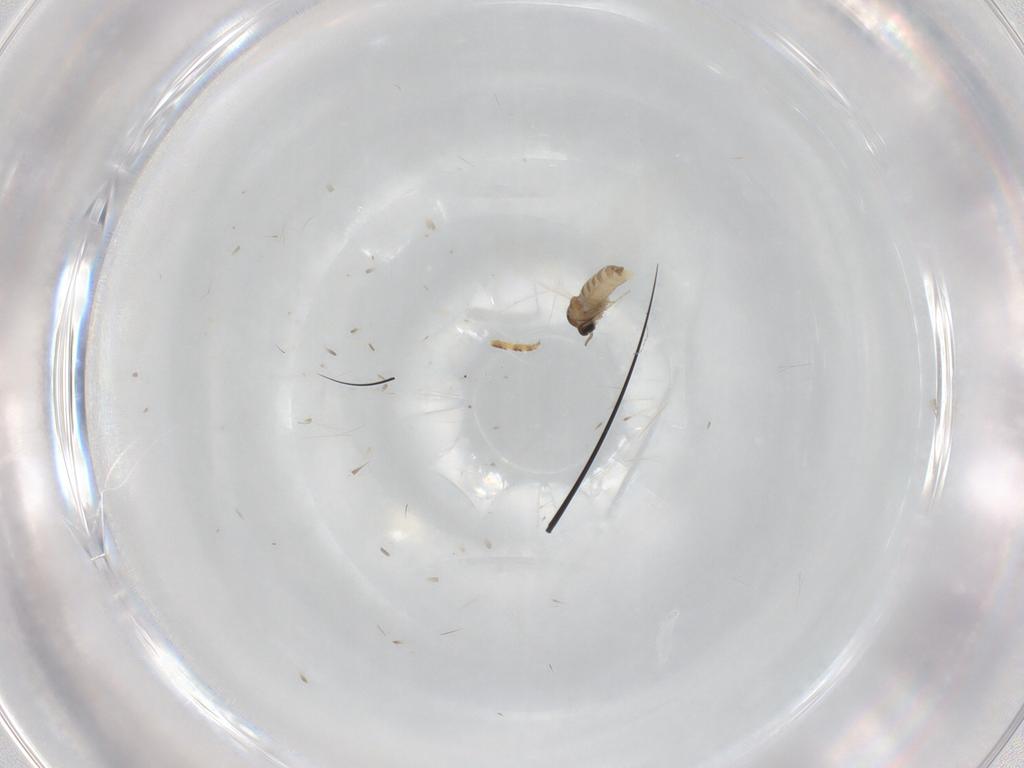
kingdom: Animalia
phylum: Arthropoda
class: Insecta
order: Diptera
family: Cecidomyiidae
